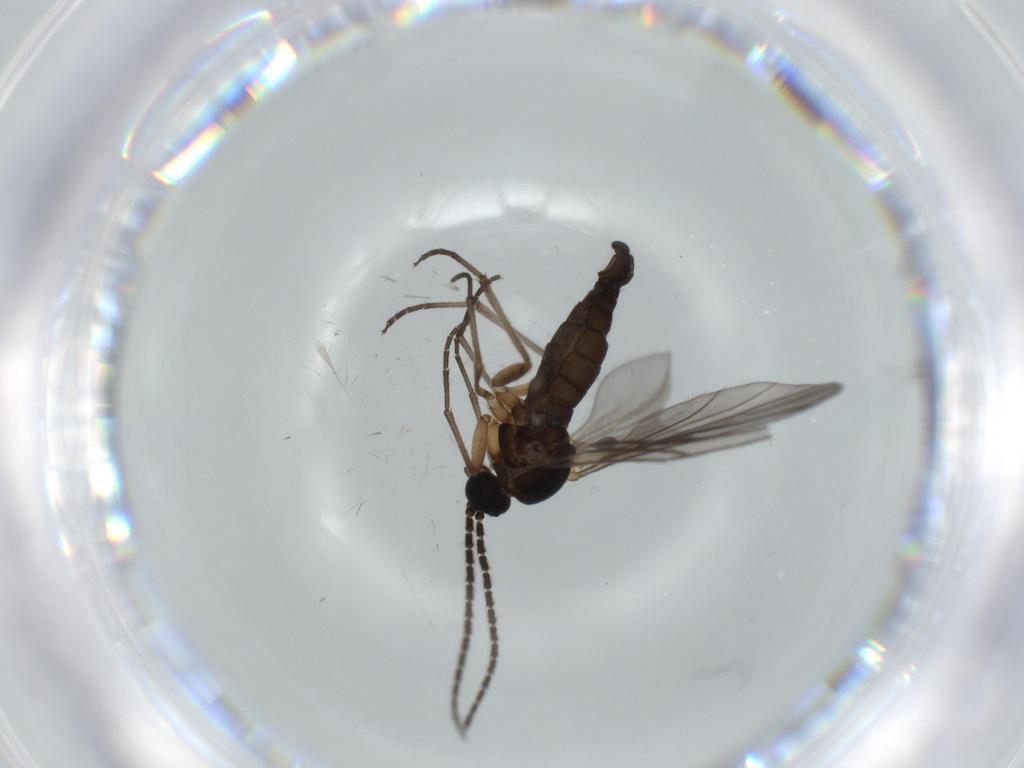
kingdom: Animalia
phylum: Arthropoda
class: Insecta
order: Diptera
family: Sciaridae
